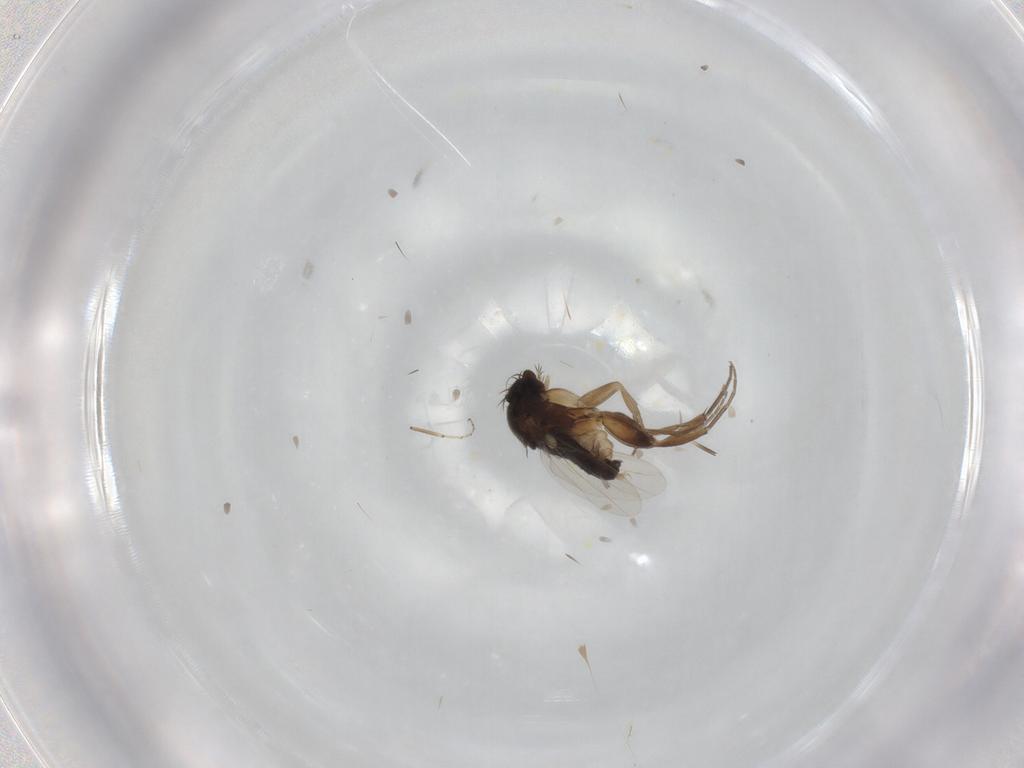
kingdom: Animalia
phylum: Arthropoda
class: Insecta
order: Diptera
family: Phoridae
